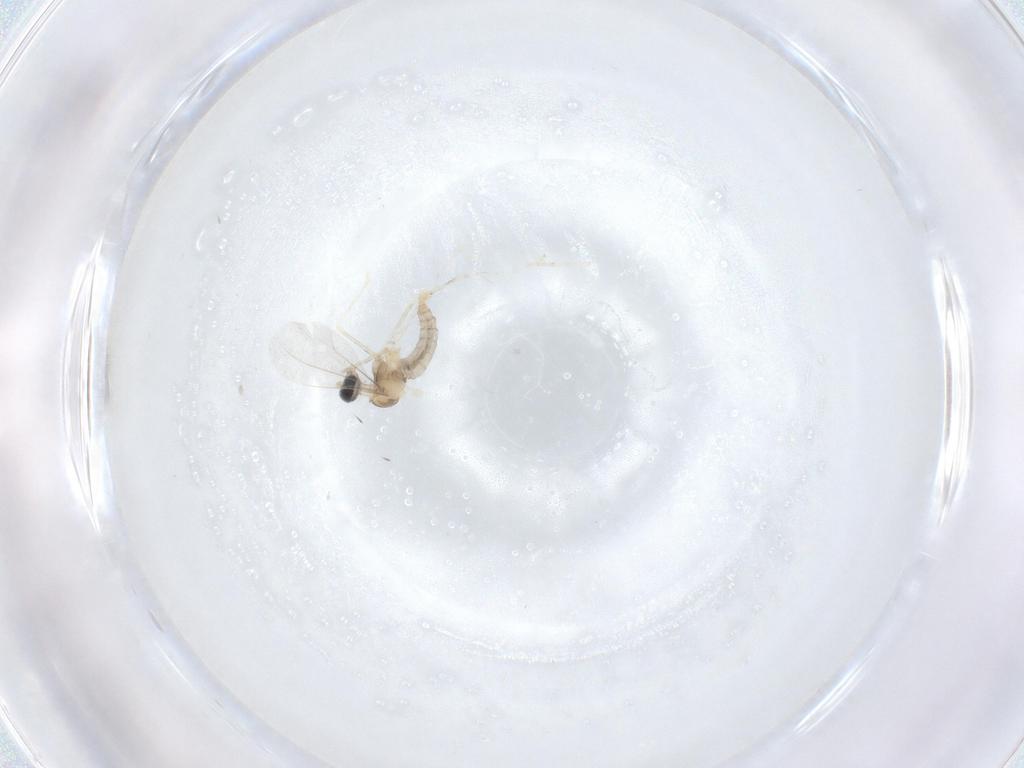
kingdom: Animalia
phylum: Arthropoda
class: Insecta
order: Diptera
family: Cecidomyiidae
